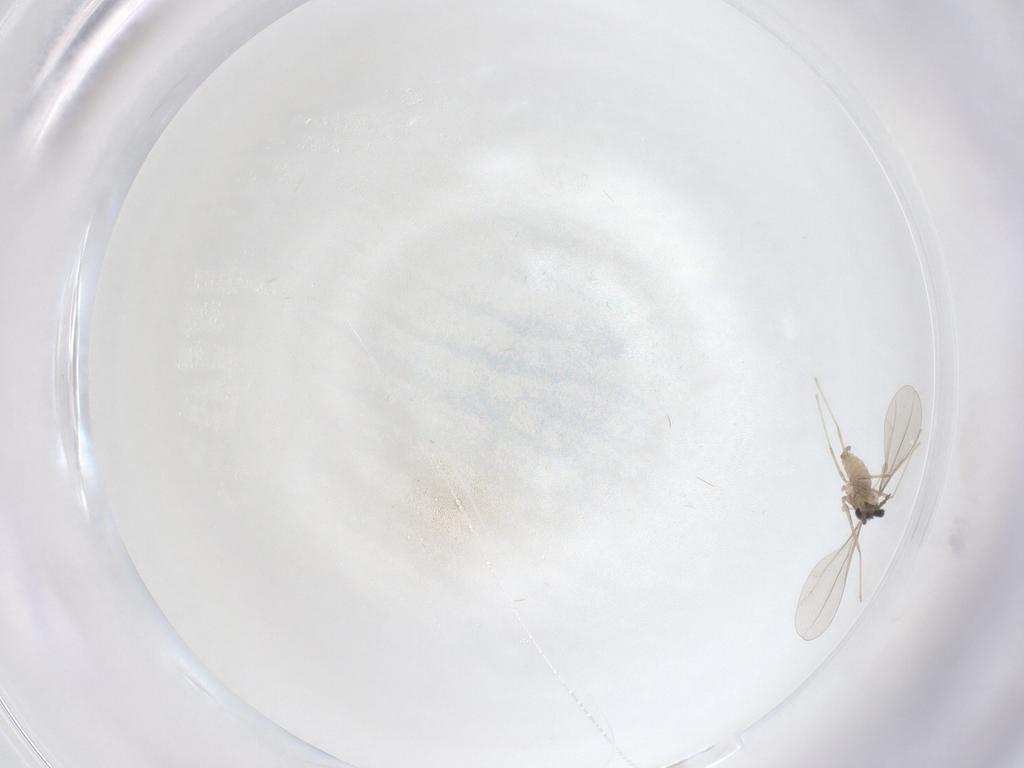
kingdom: Animalia
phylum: Arthropoda
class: Insecta
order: Diptera
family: Cecidomyiidae
